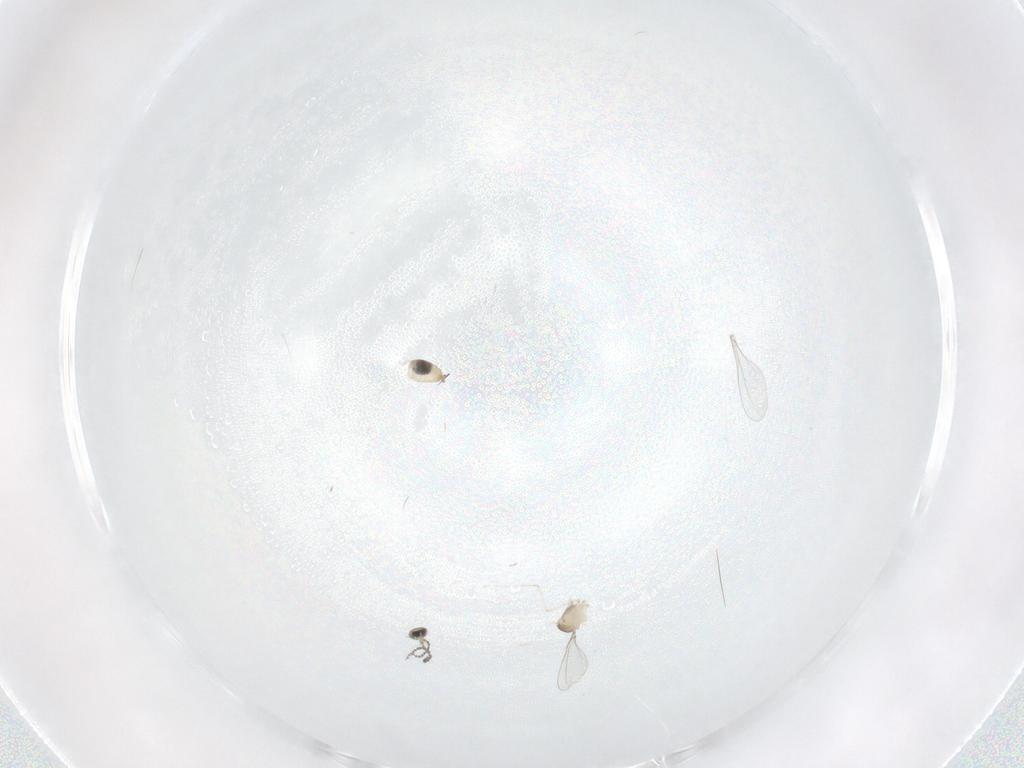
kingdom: Animalia
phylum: Arthropoda
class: Insecta
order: Diptera
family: Cecidomyiidae
